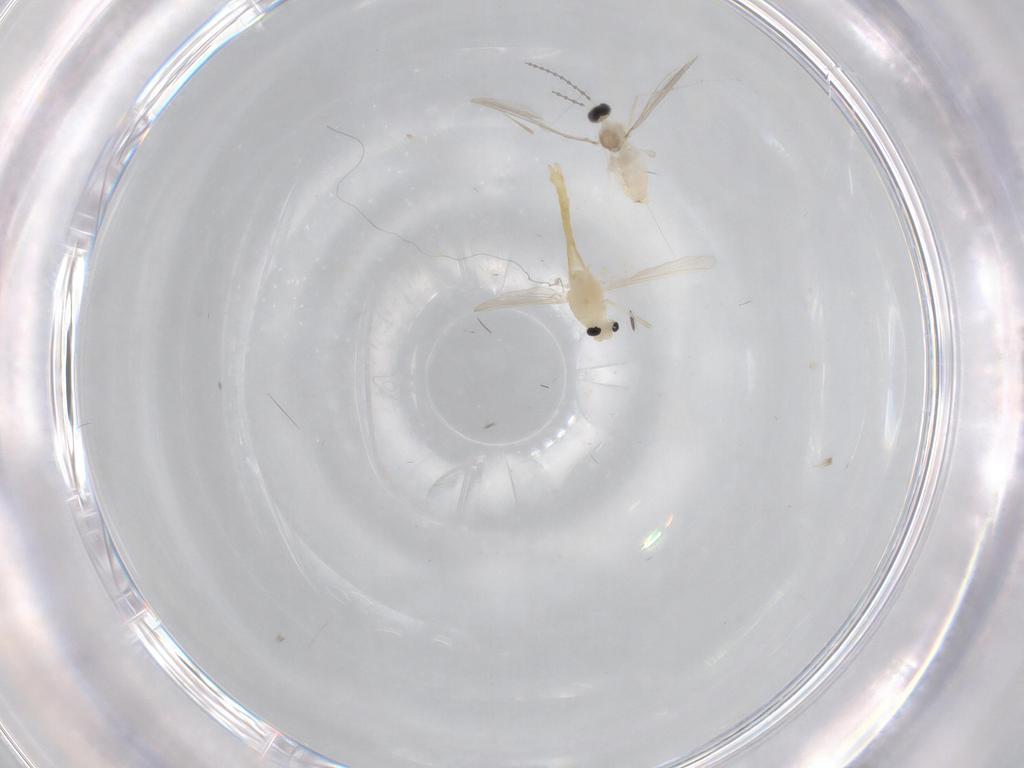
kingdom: Animalia
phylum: Arthropoda
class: Insecta
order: Diptera
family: Cecidomyiidae
